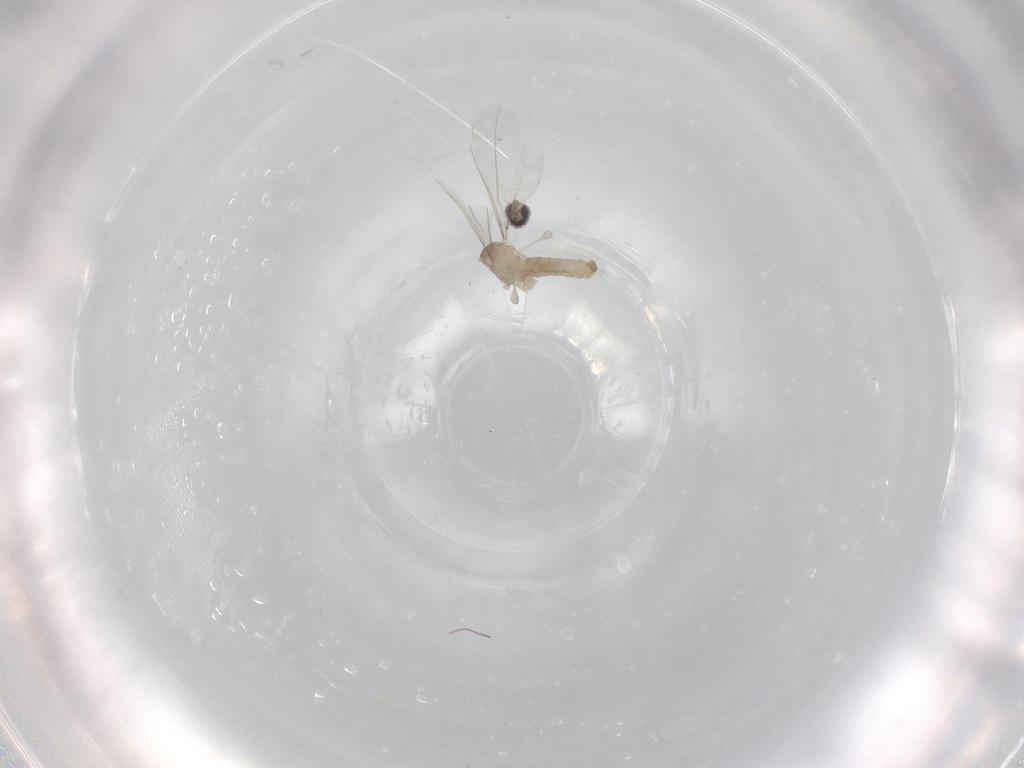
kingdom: Animalia
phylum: Arthropoda
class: Insecta
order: Diptera
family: Cecidomyiidae
